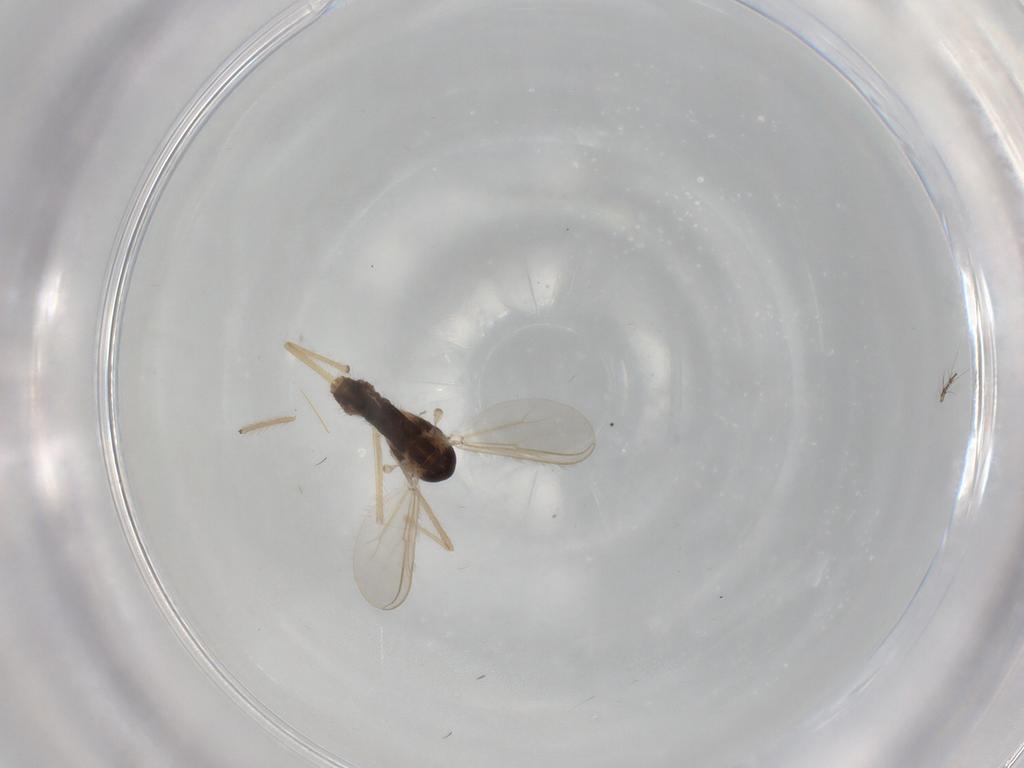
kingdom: Animalia
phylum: Arthropoda
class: Insecta
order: Diptera
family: Chironomidae
